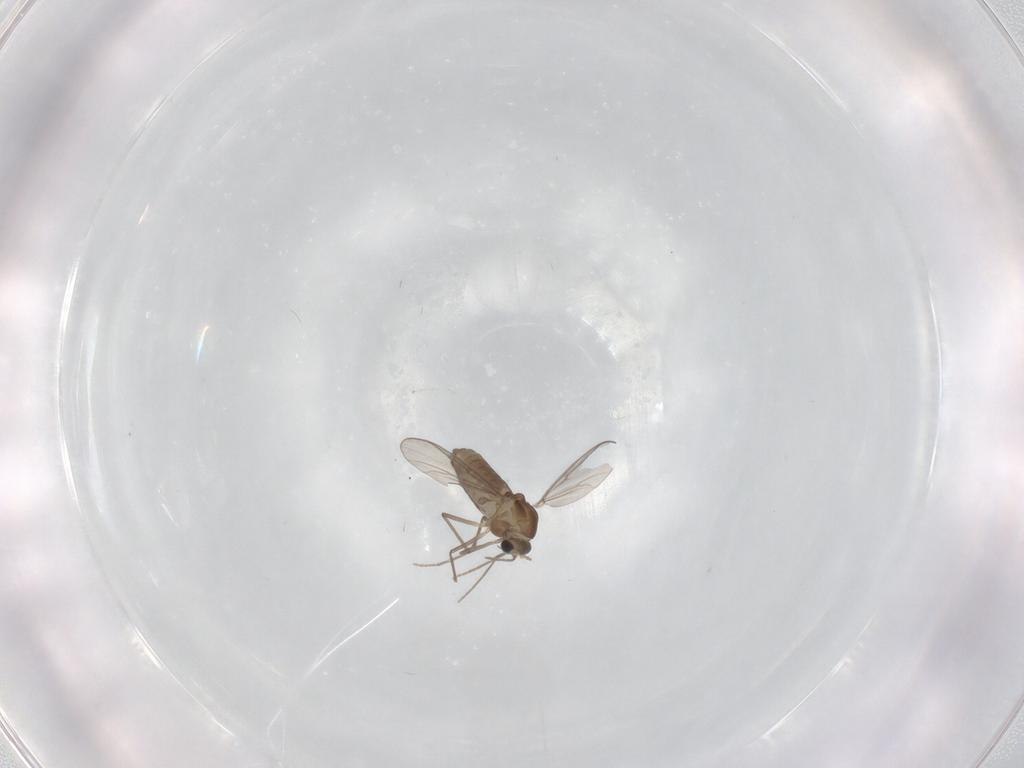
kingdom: Animalia
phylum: Arthropoda
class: Insecta
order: Diptera
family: Chironomidae
